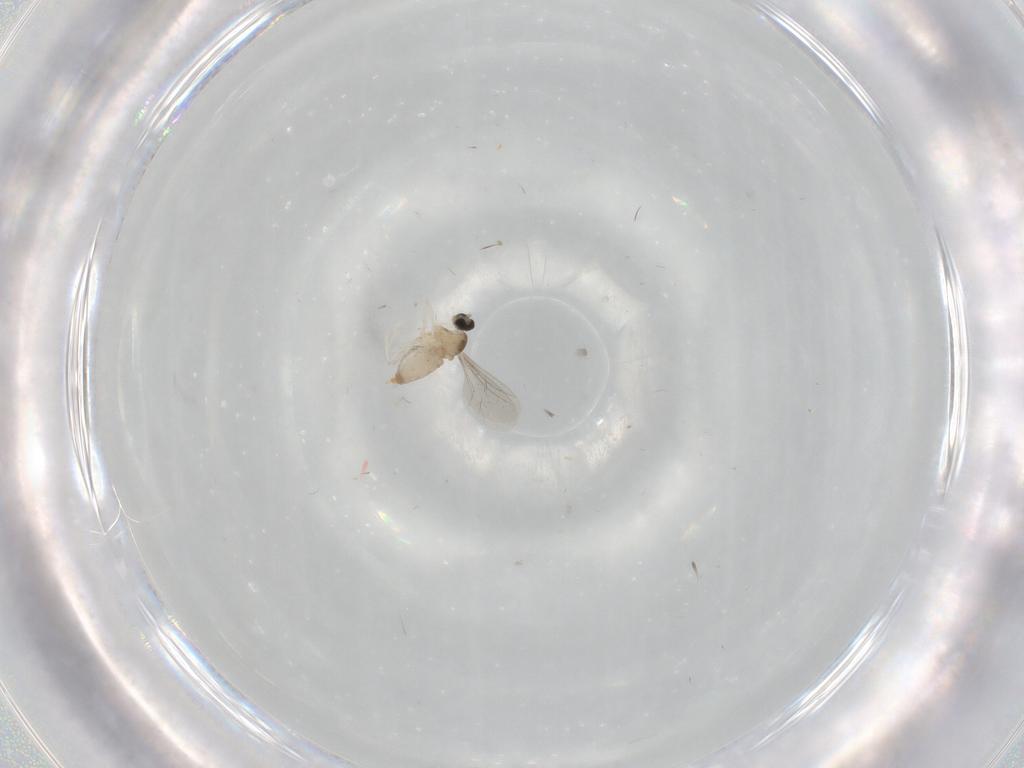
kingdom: Animalia
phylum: Arthropoda
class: Insecta
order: Diptera
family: Cecidomyiidae
